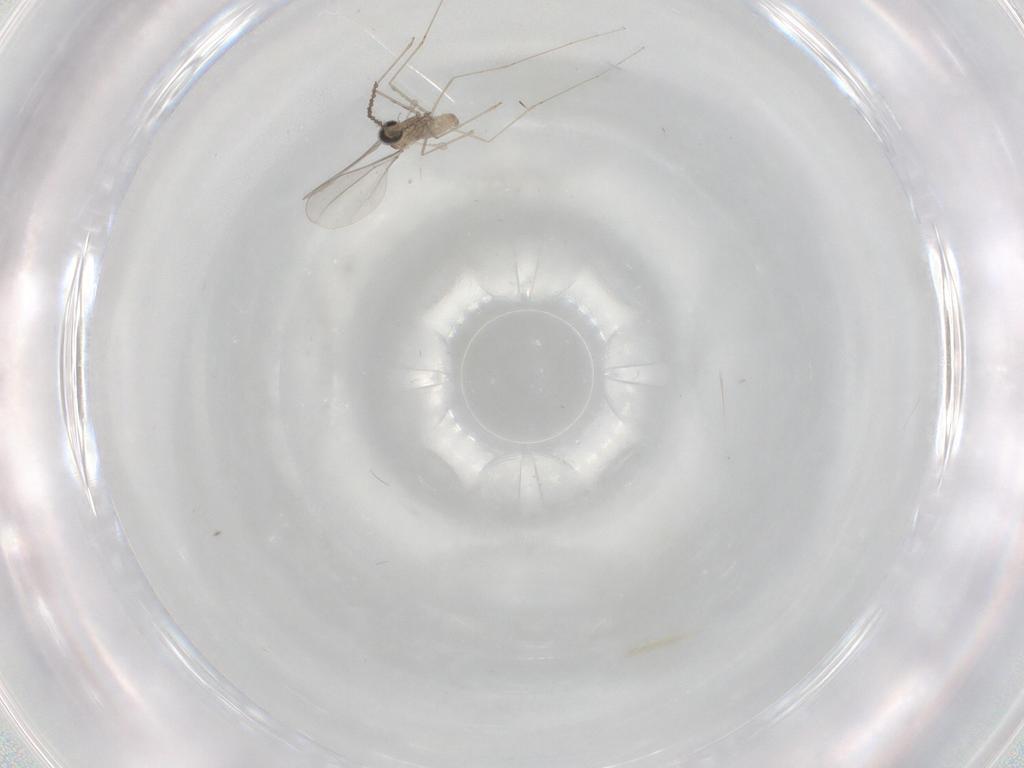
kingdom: Animalia
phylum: Arthropoda
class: Insecta
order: Diptera
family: Cecidomyiidae
